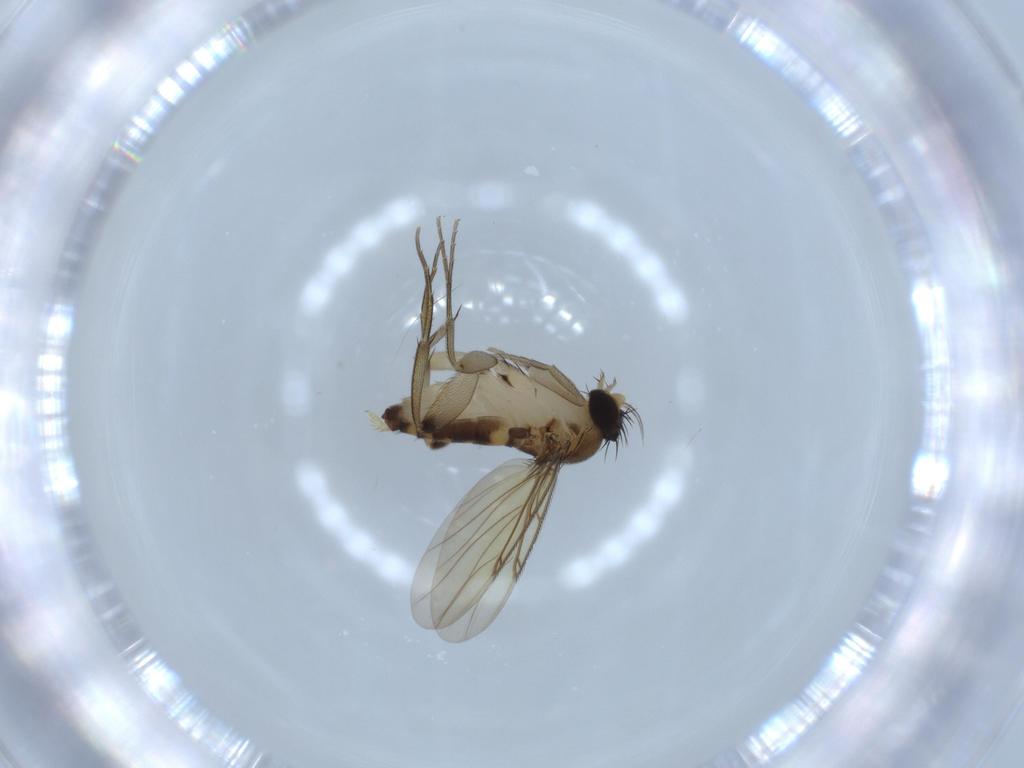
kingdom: Animalia
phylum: Arthropoda
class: Insecta
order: Diptera
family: Phoridae
